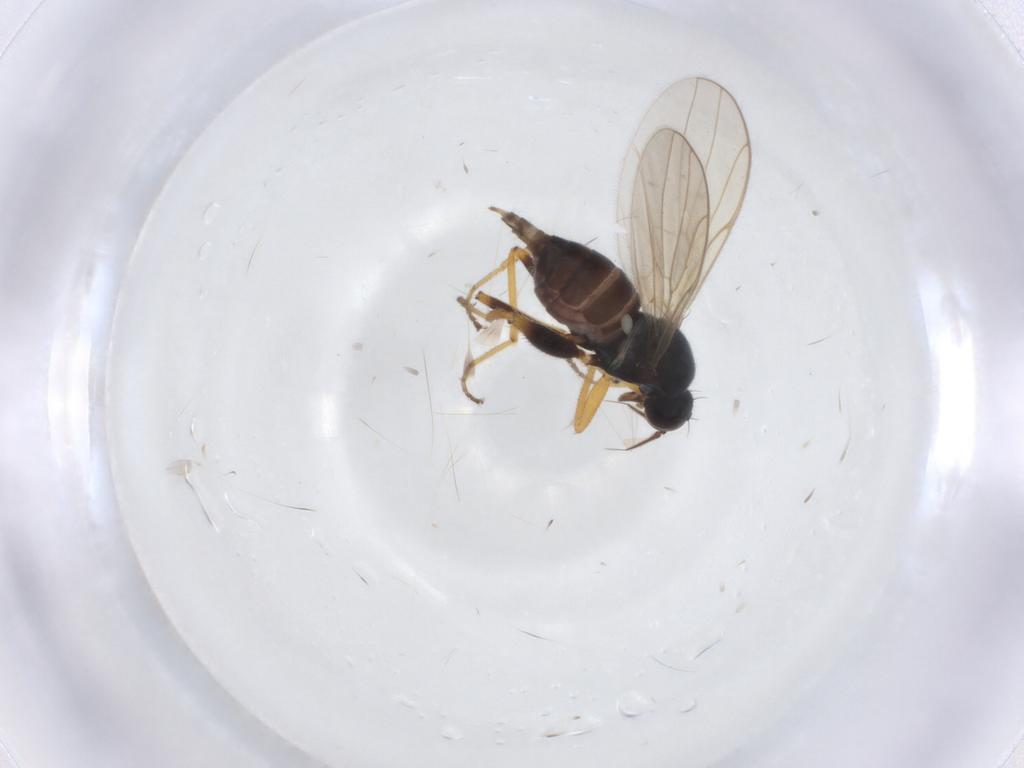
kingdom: Animalia
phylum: Arthropoda
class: Insecta
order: Diptera
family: Hybotidae
